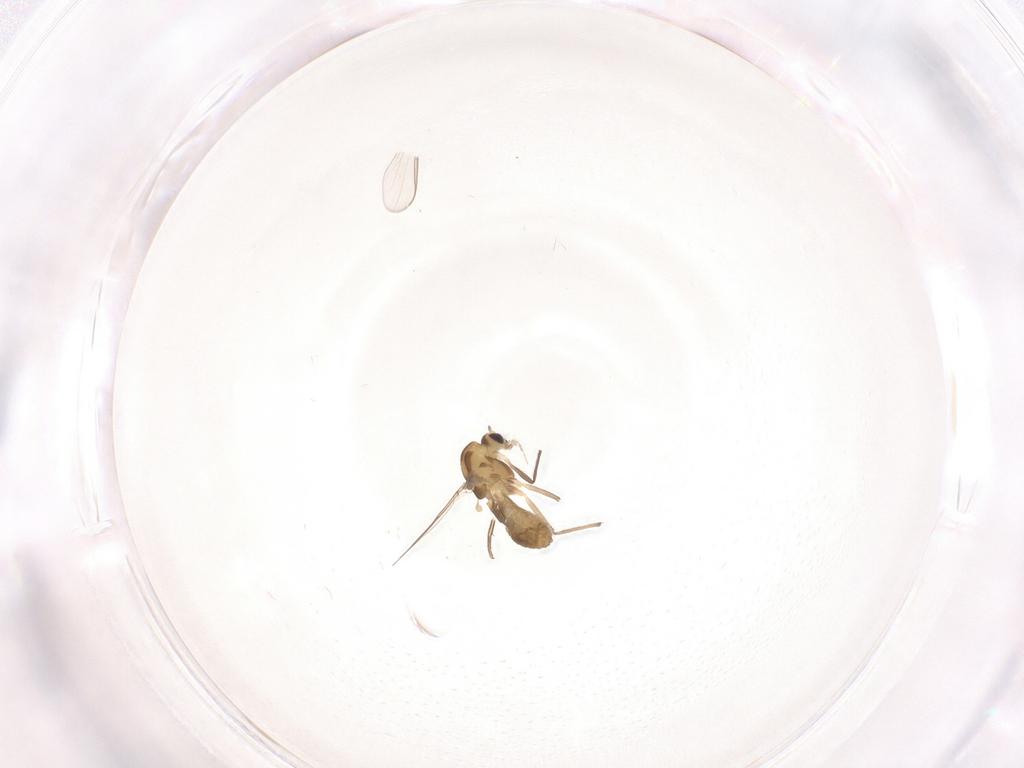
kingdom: Animalia
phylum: Arthropoda
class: Insecta
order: Diptera
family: Chironomidae
